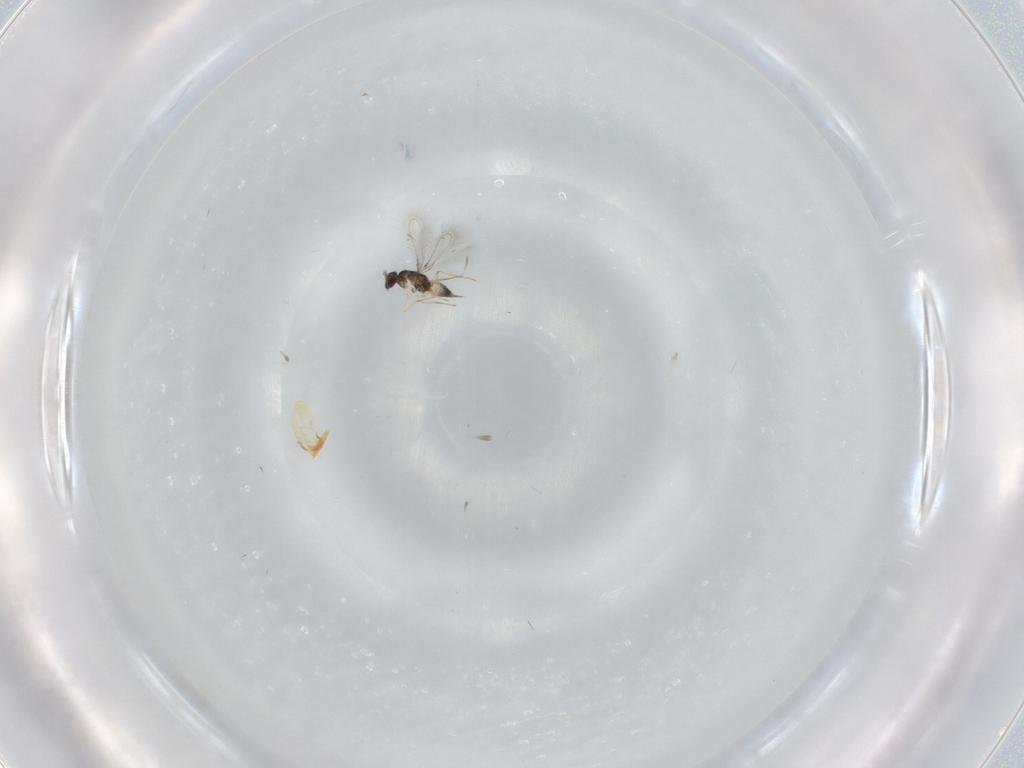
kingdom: Animalia
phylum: Arthropoda
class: Insecta
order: Hymenoptera
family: Mymaridae
